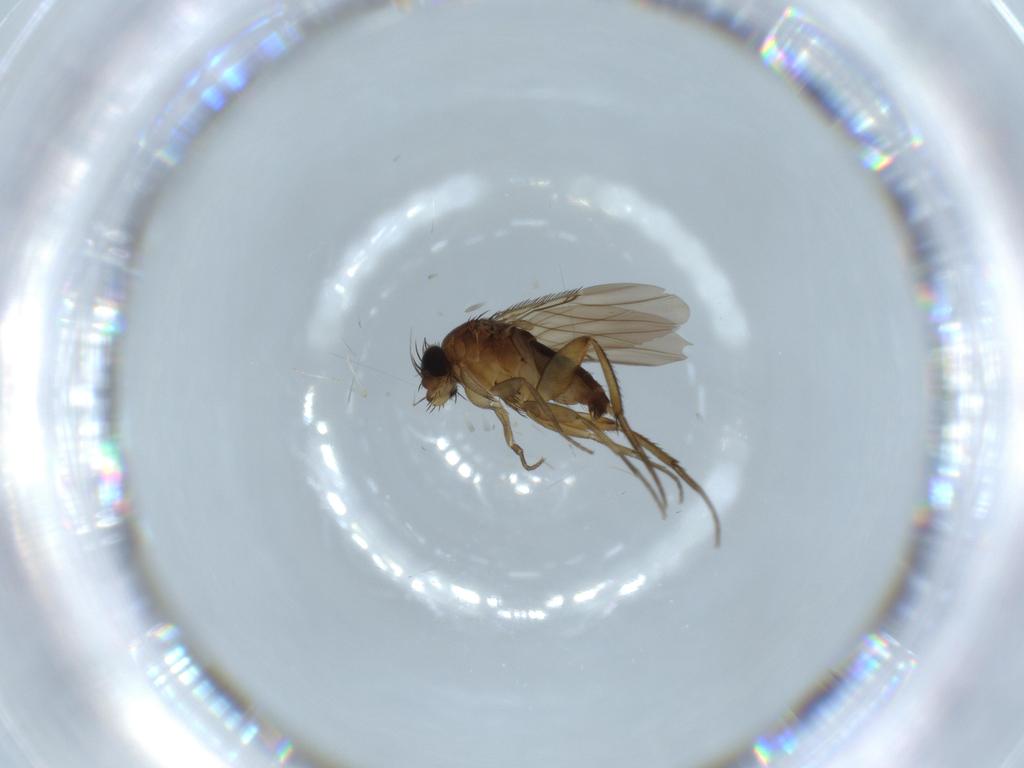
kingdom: Animalia
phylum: Arthropoda
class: Insecta
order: Diptera
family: Phoridae
